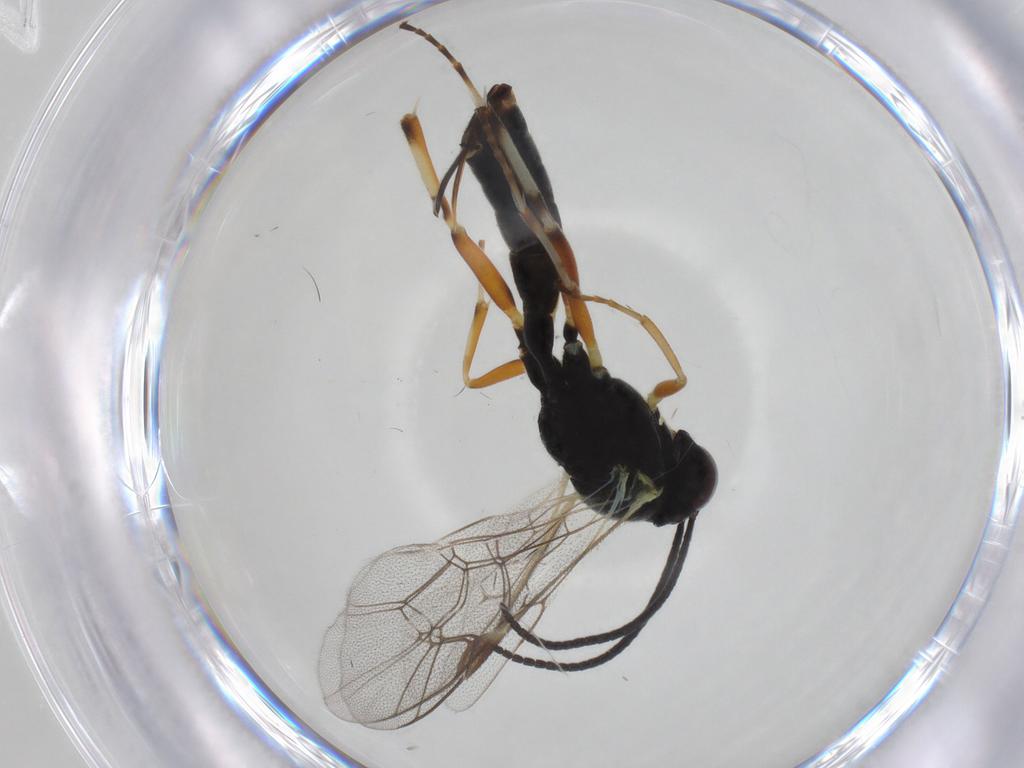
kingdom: Animalia
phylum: Arthropoda
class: Insecta
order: Hymenoptera
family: Ichneumonidae
